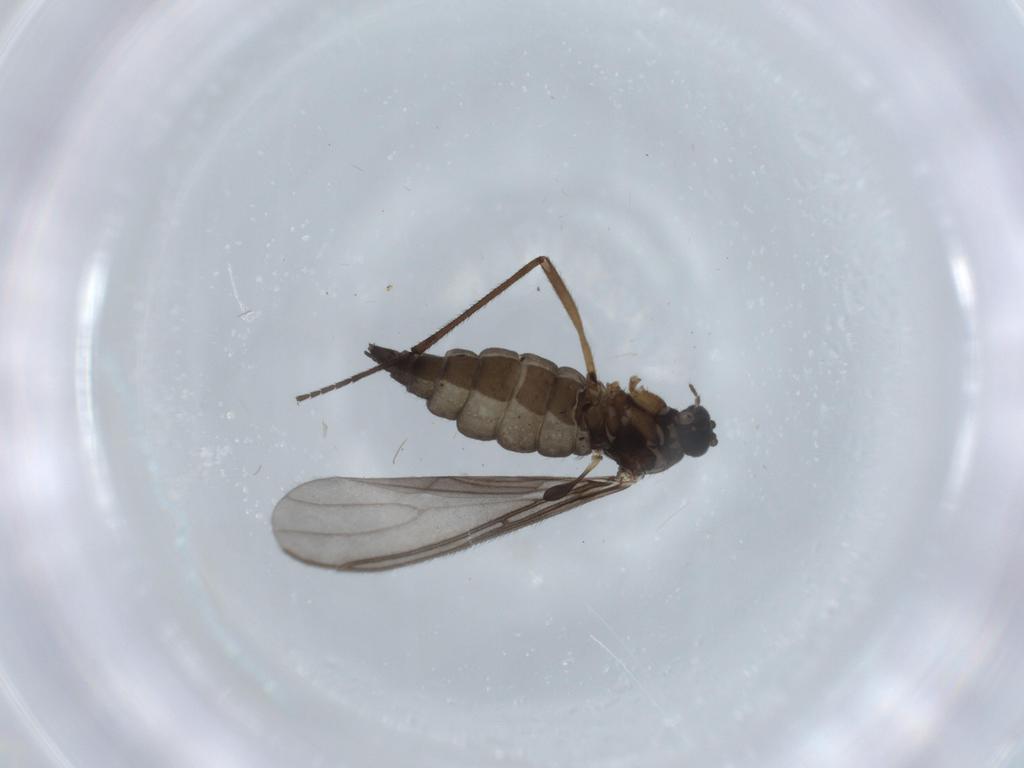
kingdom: Animalia
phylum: Arthropoda
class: Insecta
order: Diptera
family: Sciaridae
